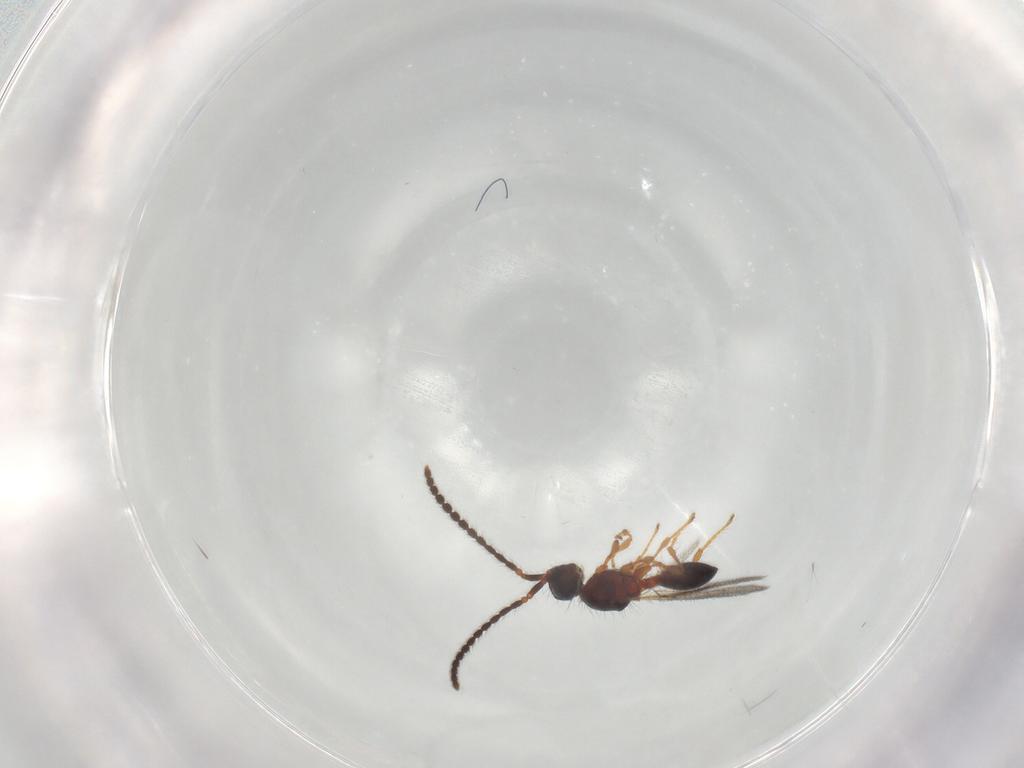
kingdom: Animalia
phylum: Arthropoda
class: Insecta
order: Hymenoptera
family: Diapriidae
